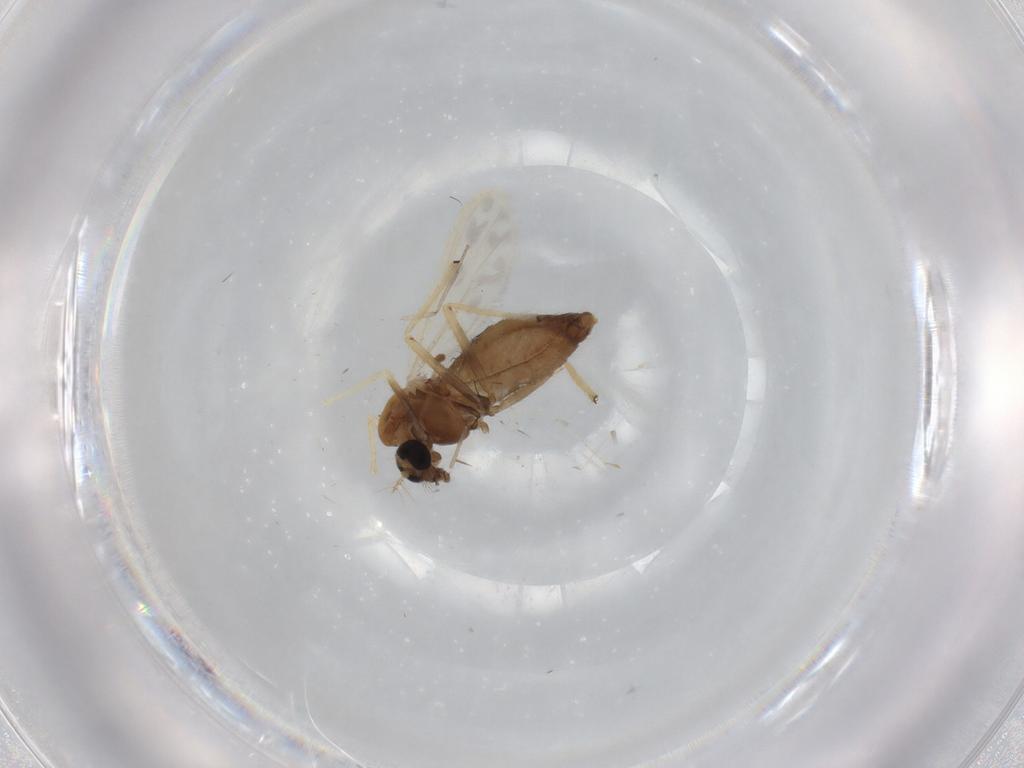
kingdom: Animalia
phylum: Arthropoda
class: Insecta
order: Diptera
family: Chironomidae
